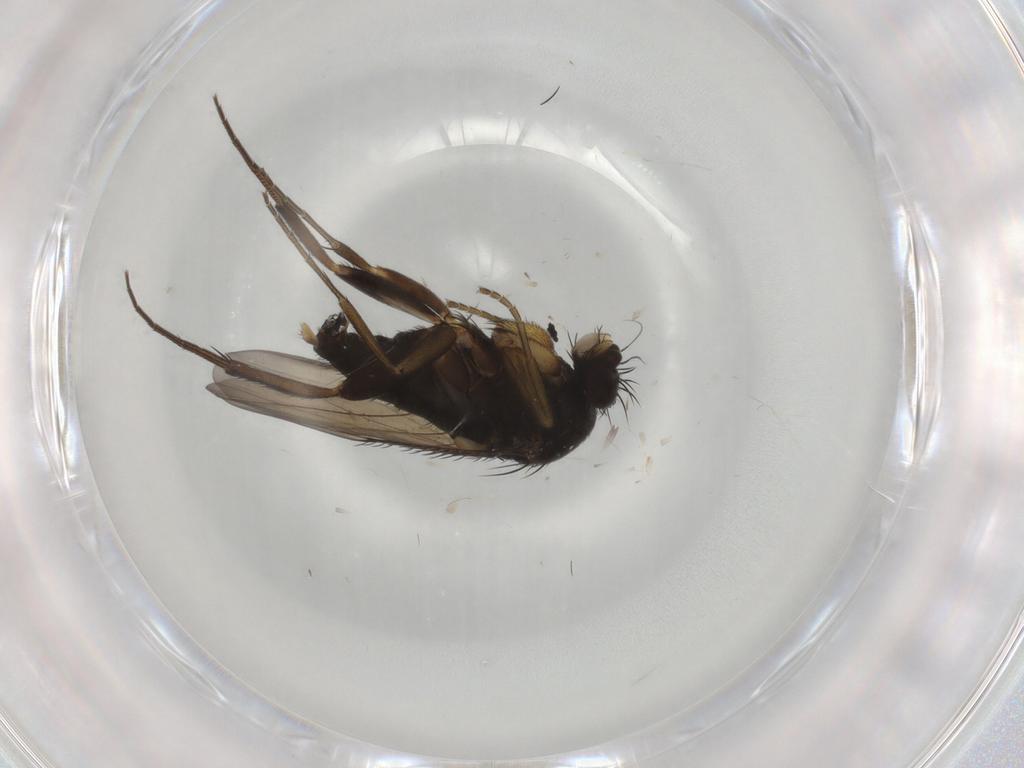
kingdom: Animalia
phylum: Arthropoda
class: Insecta
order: Diptera
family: Phoridae
